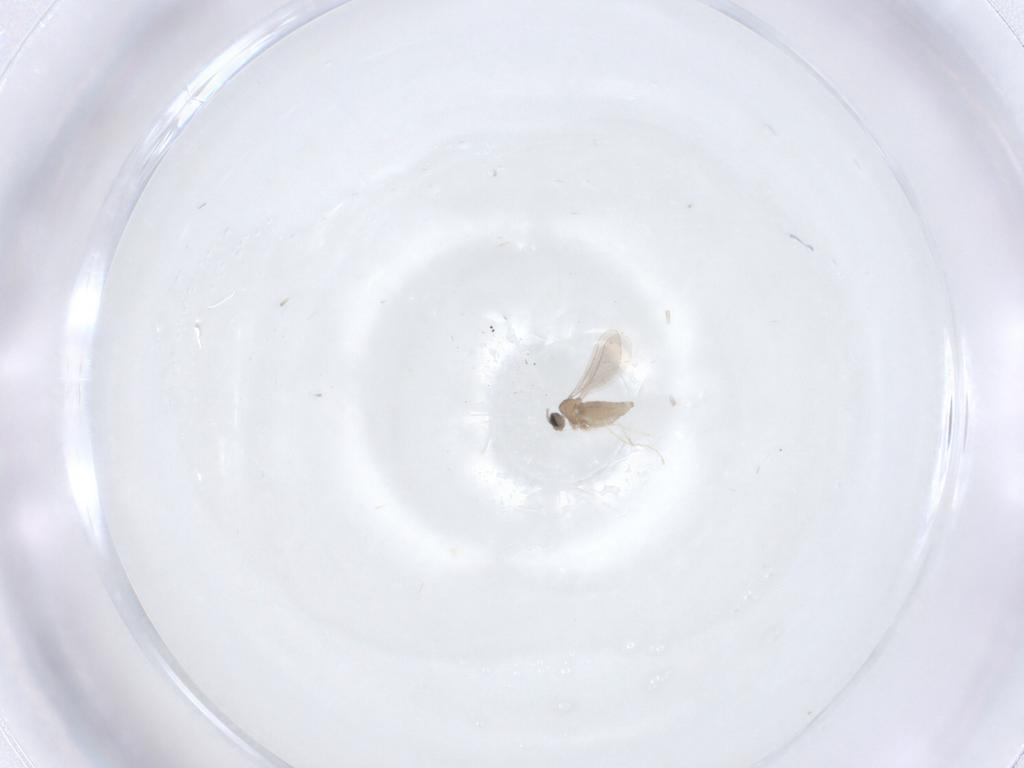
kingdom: Animalia
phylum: Arthropoda
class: Insecta
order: Diptera
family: Cecidomyiidae
